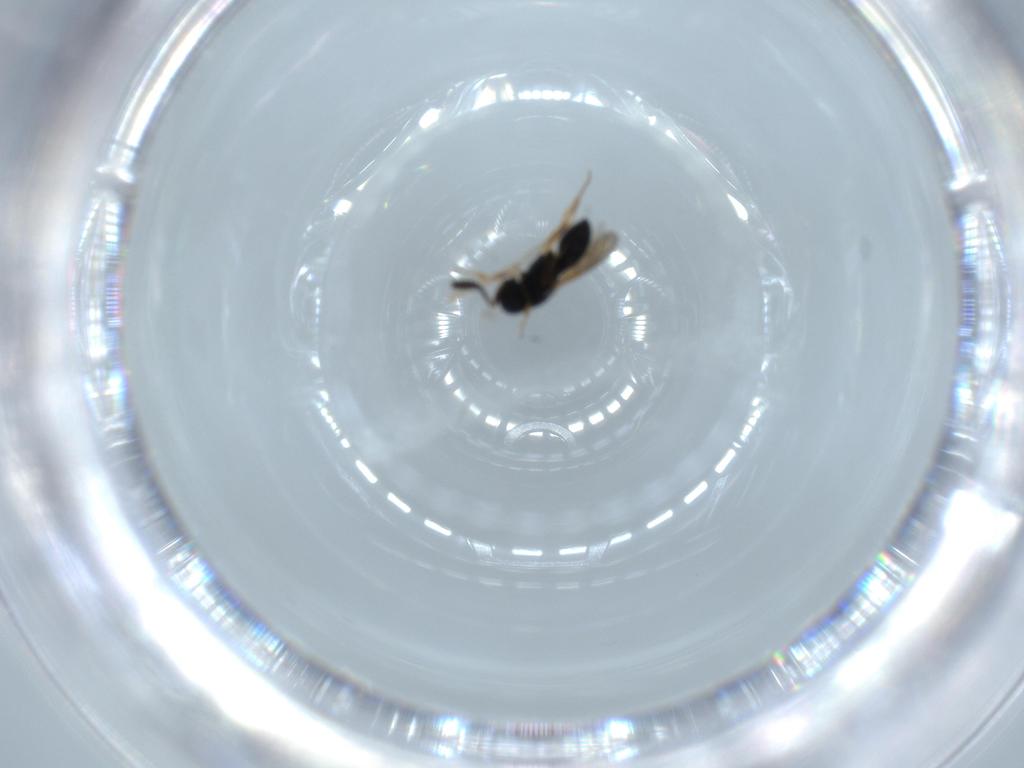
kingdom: Animalia
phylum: Arthropoda
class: Insecta
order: Hymenoptera
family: Scelionidae
